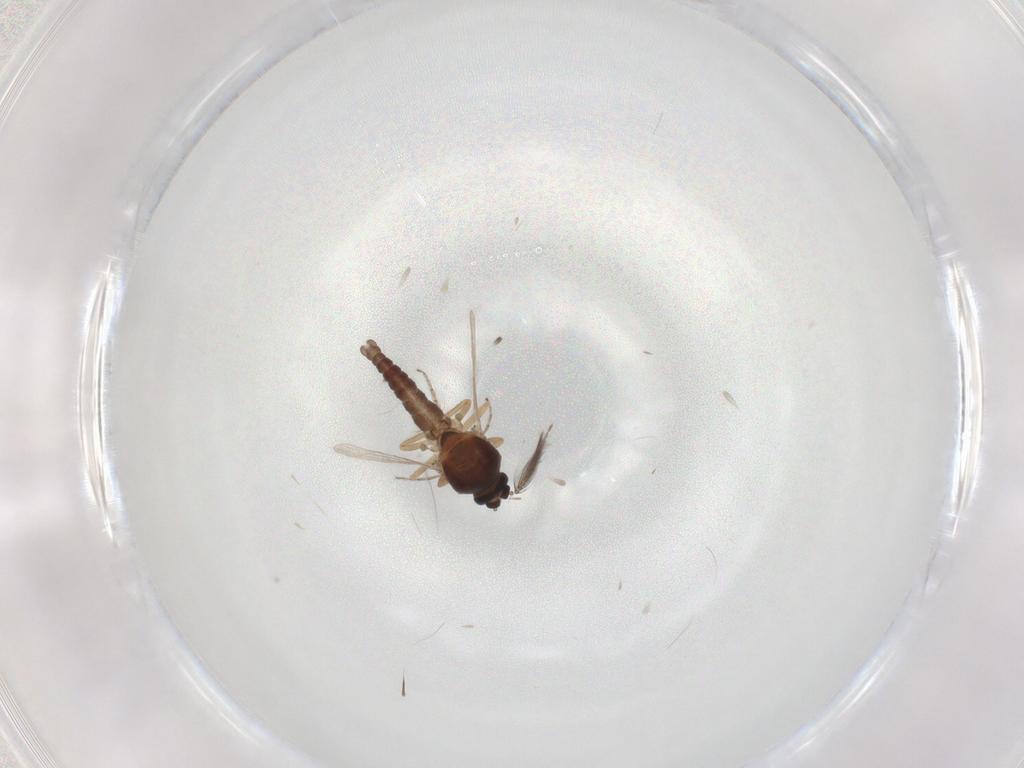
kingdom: Animalia
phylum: Arthropoda
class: Insecta
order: Diptera
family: Ceratopogonidae
